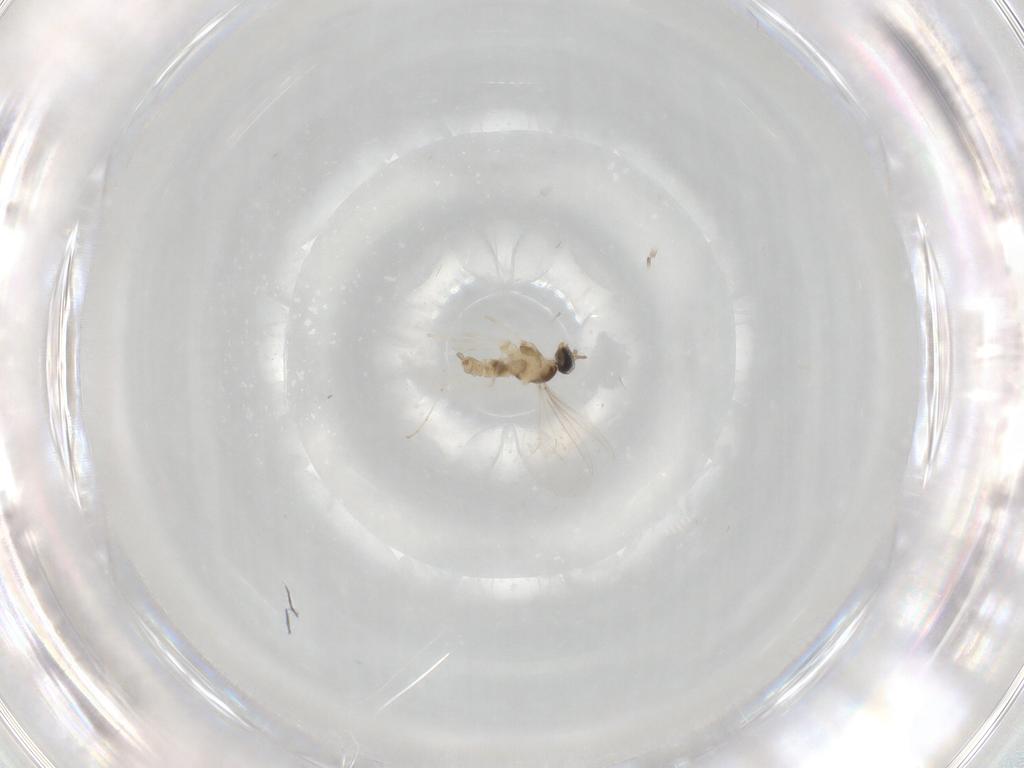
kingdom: Animalia
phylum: Arthropoda
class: Insecta
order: Diptera
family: Cecidomyiidae
